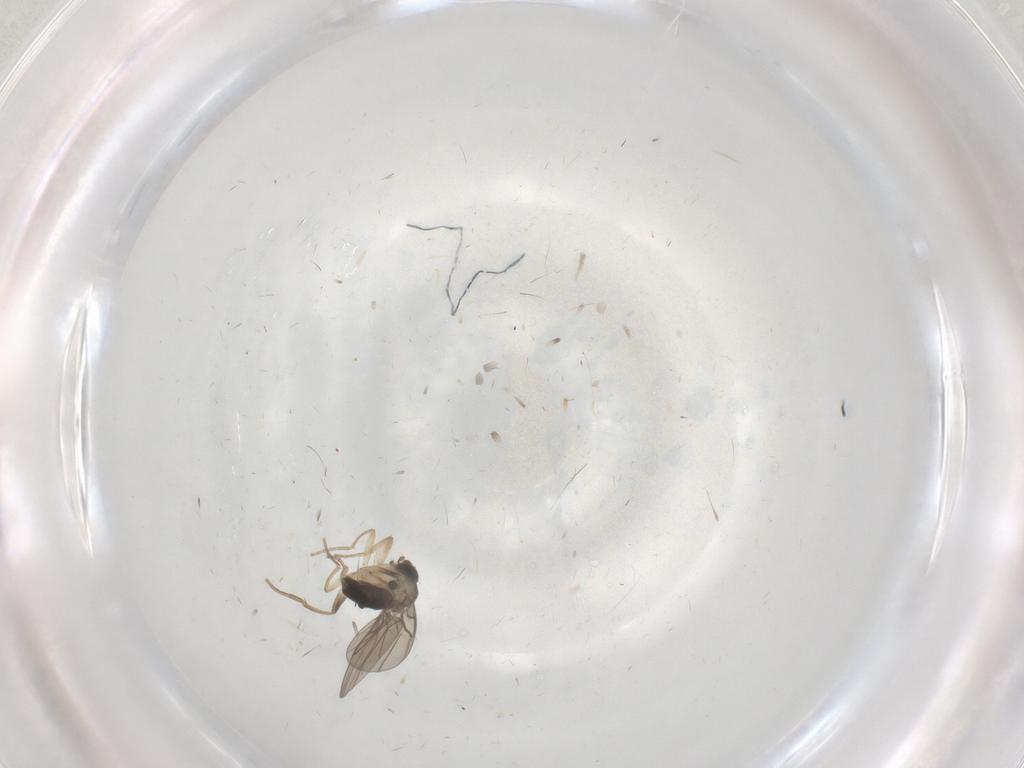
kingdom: Animalia
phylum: Arthropoda
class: Insecta
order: Diptera
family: Phoridae
